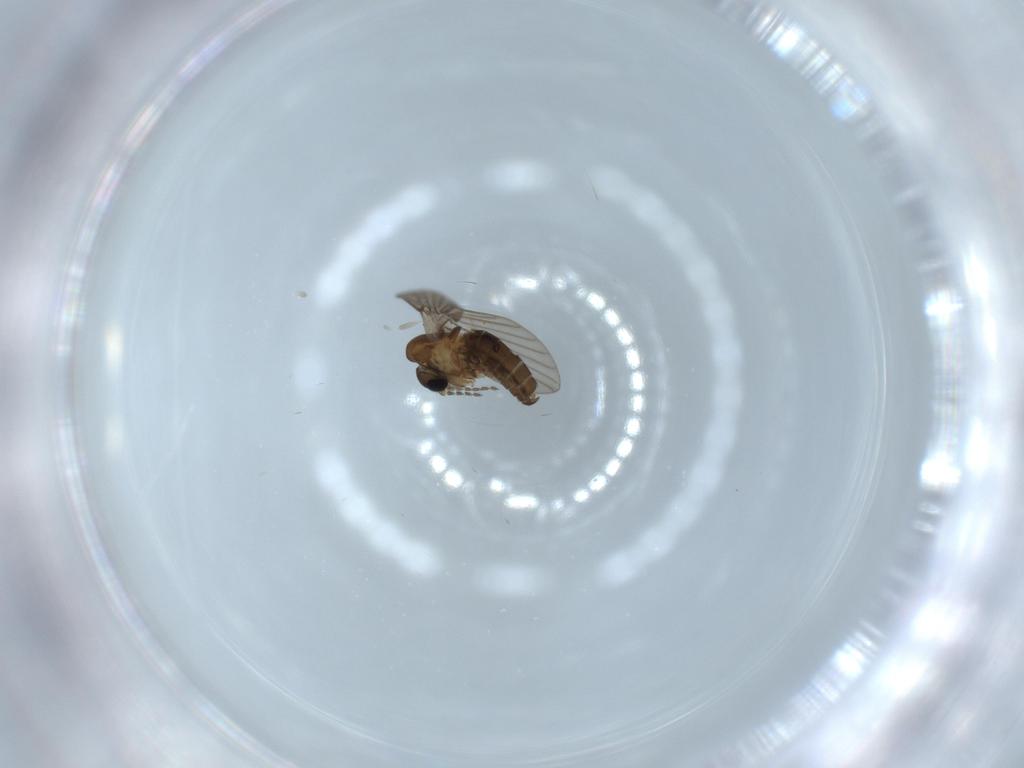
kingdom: Animalia
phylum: Arthropoda
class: Insecta
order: Diptera
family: Psychodidae
